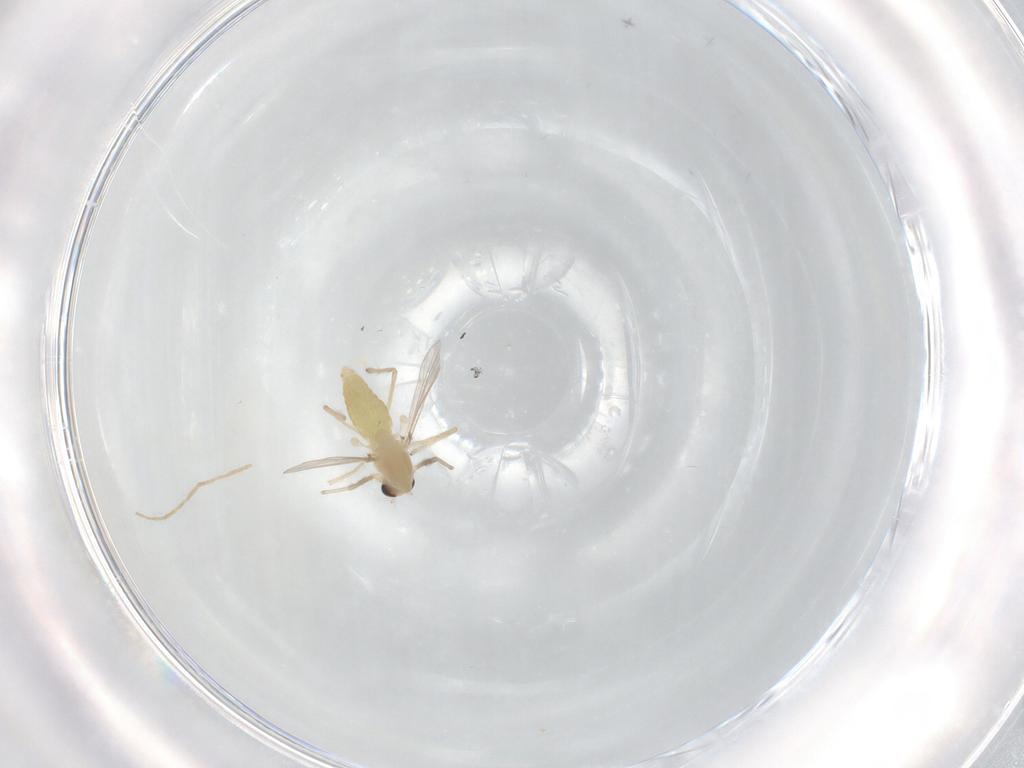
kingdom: Animalia
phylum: Arthropoda
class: Insecta
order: Diptera
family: Chironomidae
